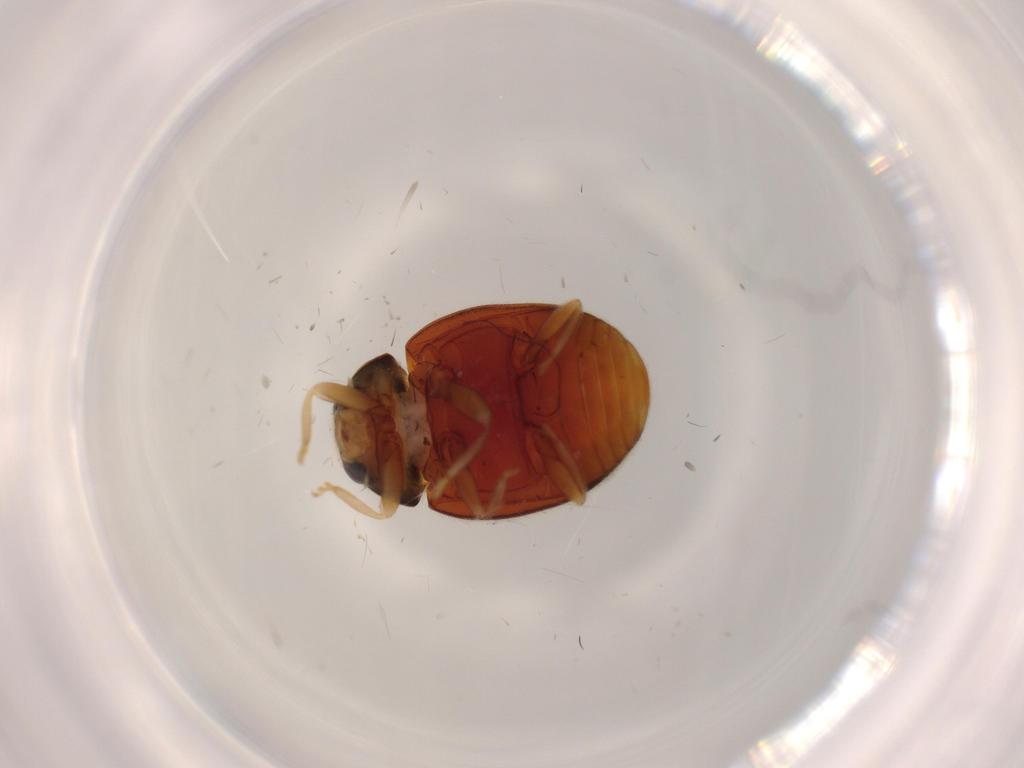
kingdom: Animalia
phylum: Arthropoda
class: Insecta
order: Coleoptera
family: Coccinellidae
